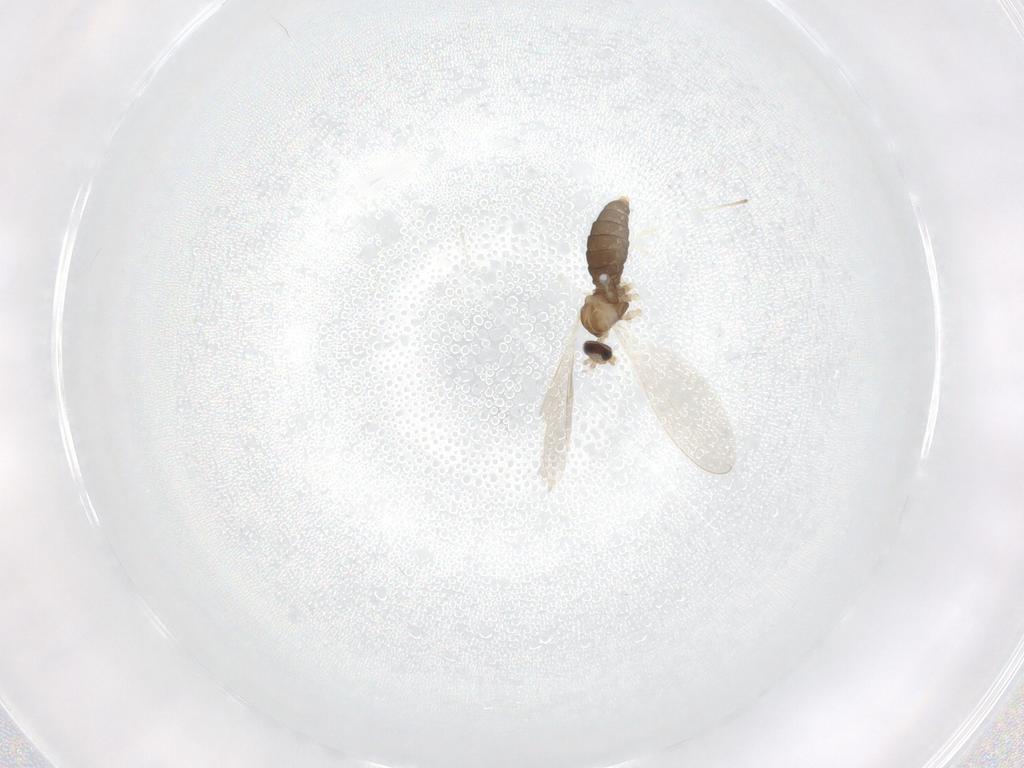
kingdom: Animalia
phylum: Arthropoda
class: Insecta
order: Diptera
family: Cecidomyiidae
